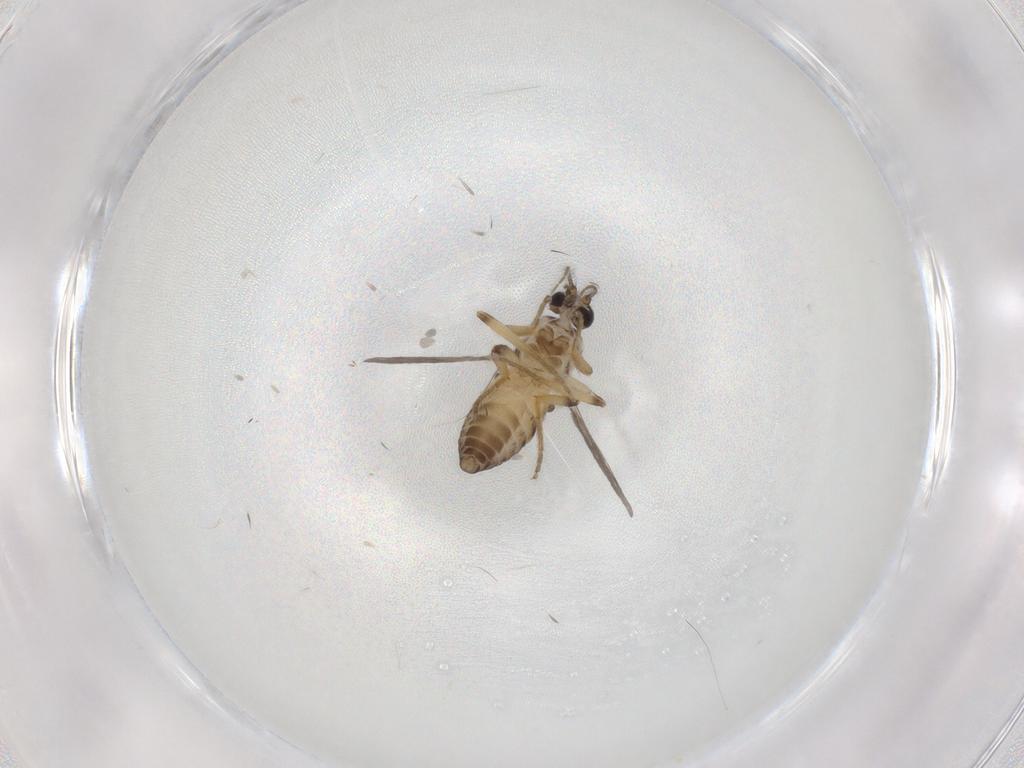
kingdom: Animalia
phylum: Arthropoda
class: Insecta
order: Diptera
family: Ceratopogonidae
